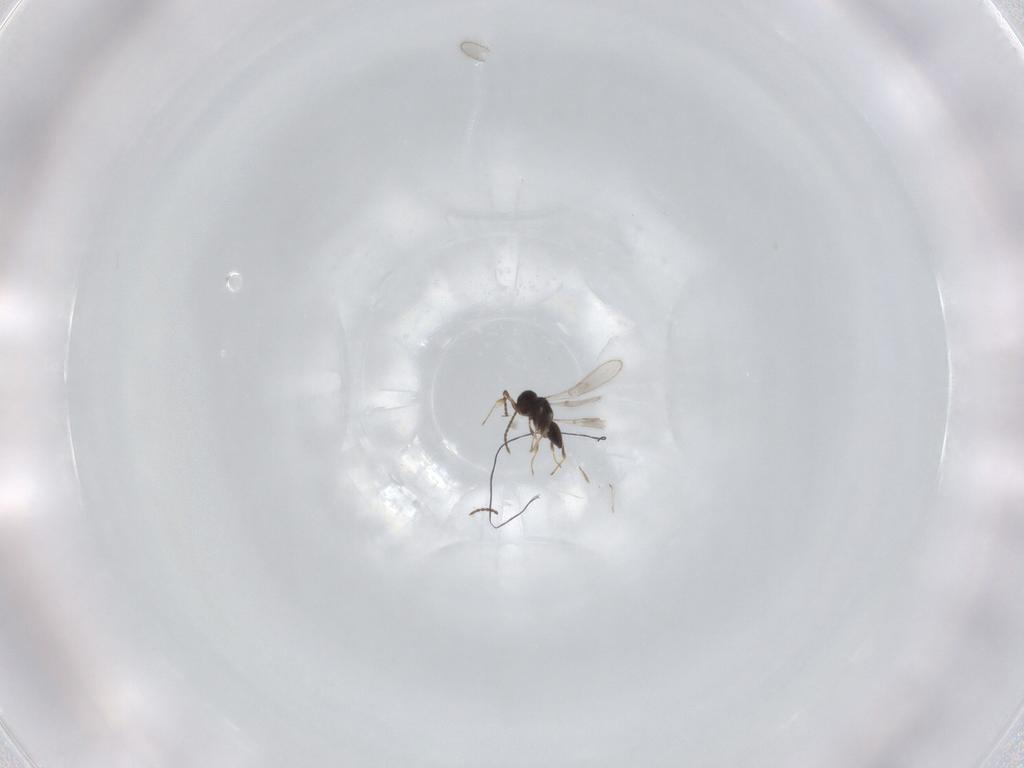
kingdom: Animalia
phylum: Arthropoda
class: Insecta
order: Hymenoptera
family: Scelionidae
